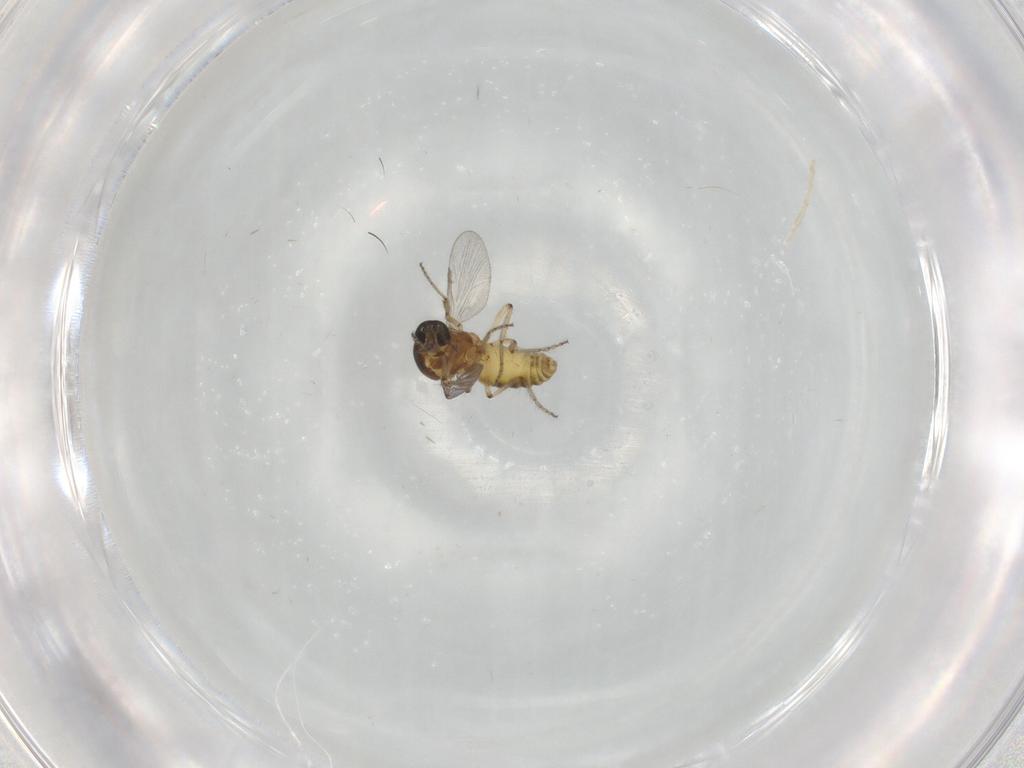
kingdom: Animalia
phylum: Arthropoda
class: Insecta
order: Diptera
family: Ceratopogonidae
